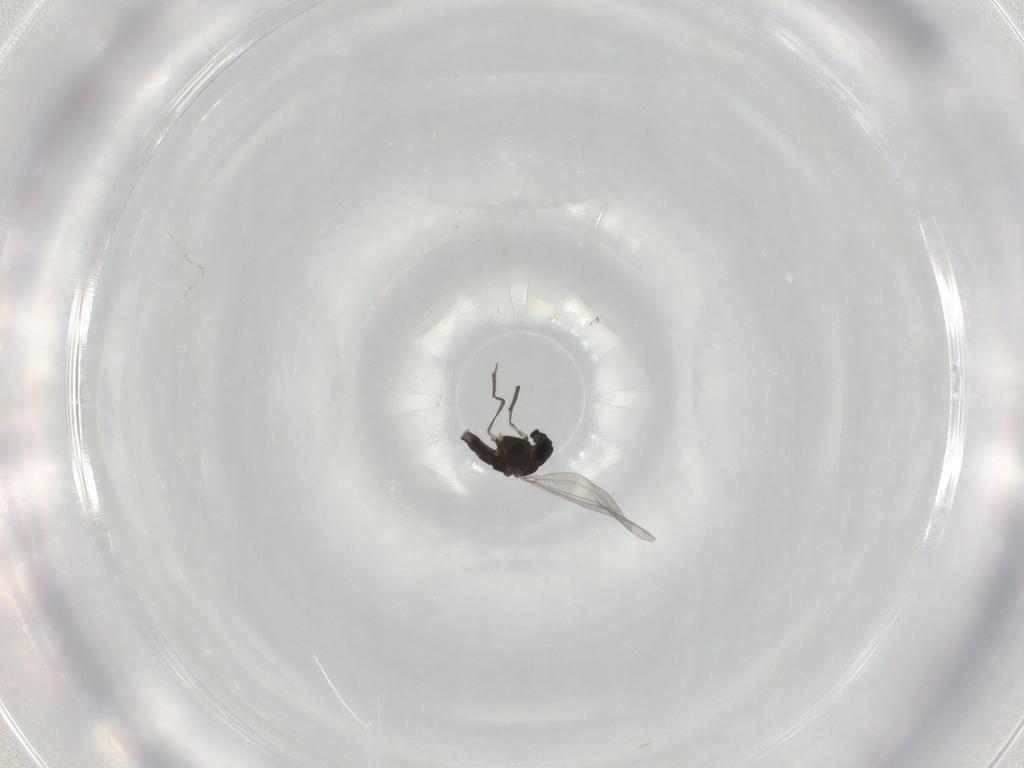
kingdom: Animalia
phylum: Arthropoda
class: Insecta
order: Diptera
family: Chironomidae
